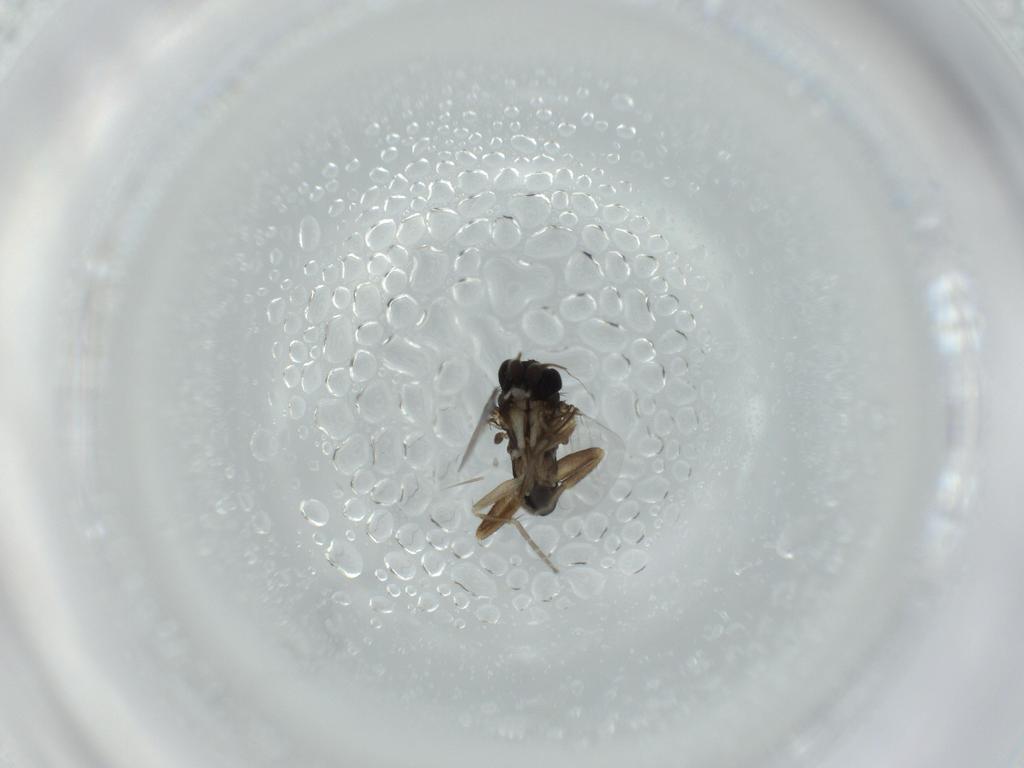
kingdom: Animalia
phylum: Arthropoda
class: Insecta
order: Diptera
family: Phoridae
